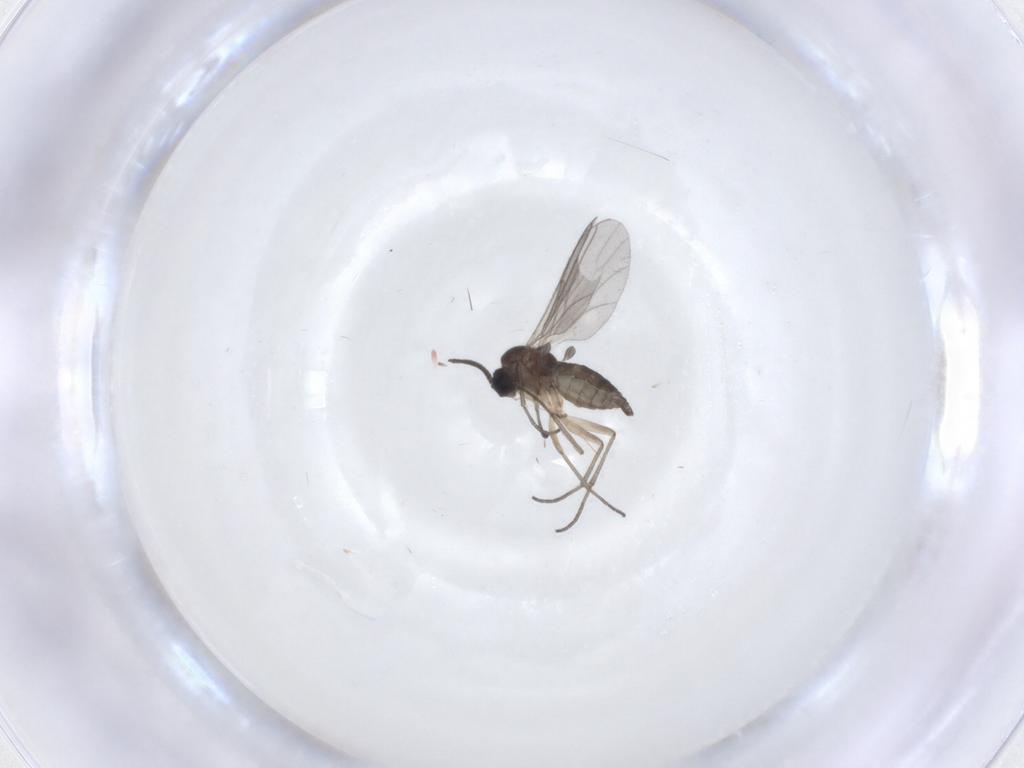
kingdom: Animalia
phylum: Arthropoda
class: Insecta
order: Diptera
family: Sciaridae
